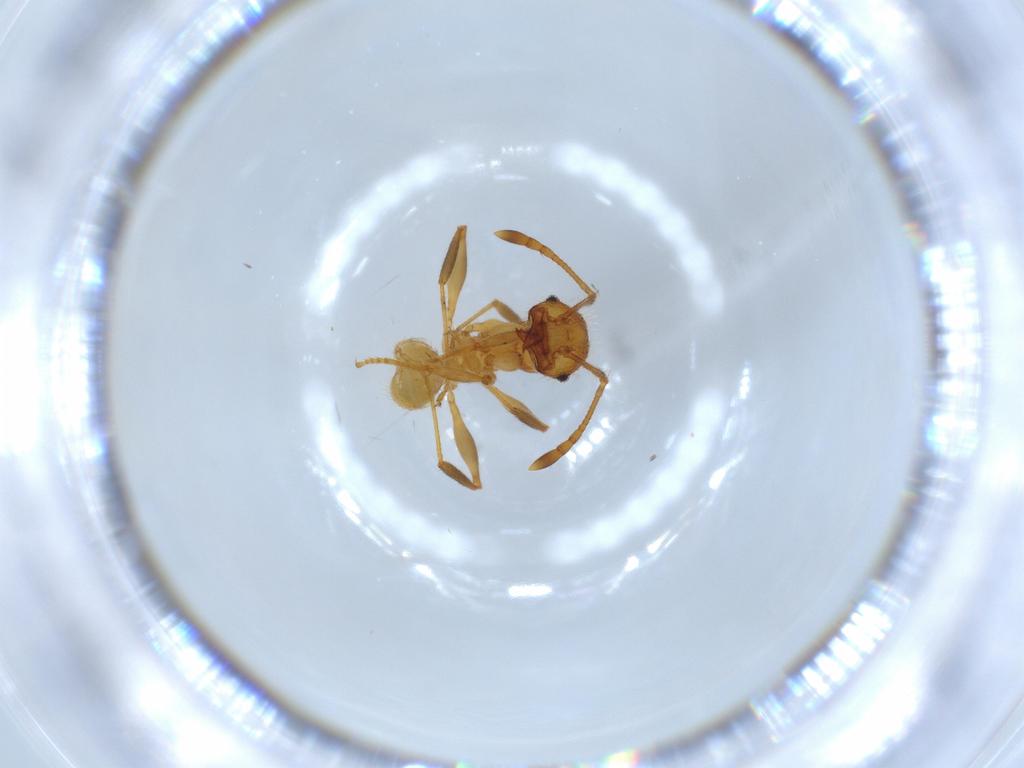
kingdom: Animalia
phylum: Arthropoda
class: Insecta
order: Hymenoptera
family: Formicidae
